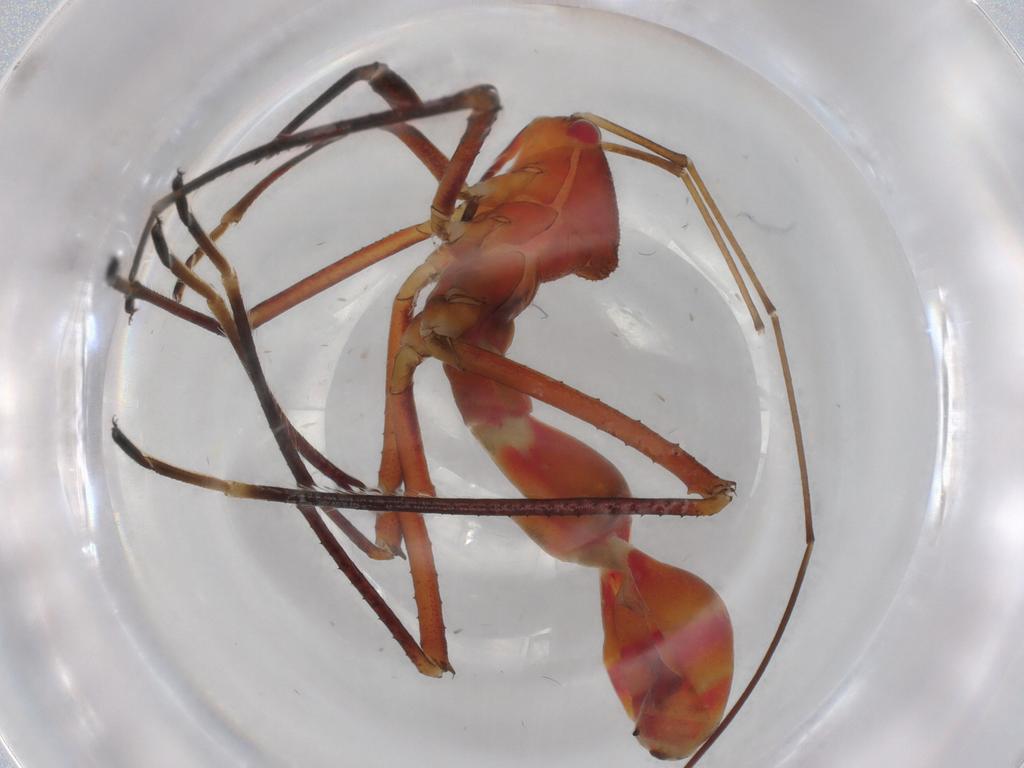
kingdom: Animalia
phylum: Arthropoda
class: Insecta
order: Hemiptera
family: Colobathristidae
